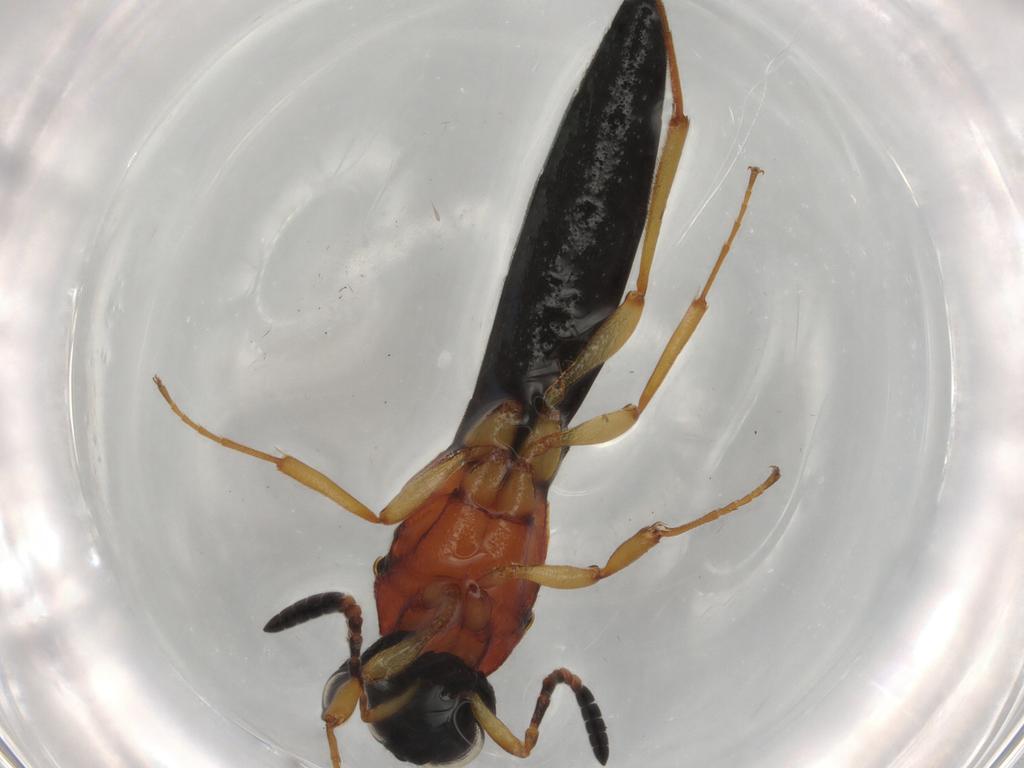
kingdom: Animalia
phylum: Arthropoda
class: Insecta
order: Hymenoptera
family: Scelionidae
